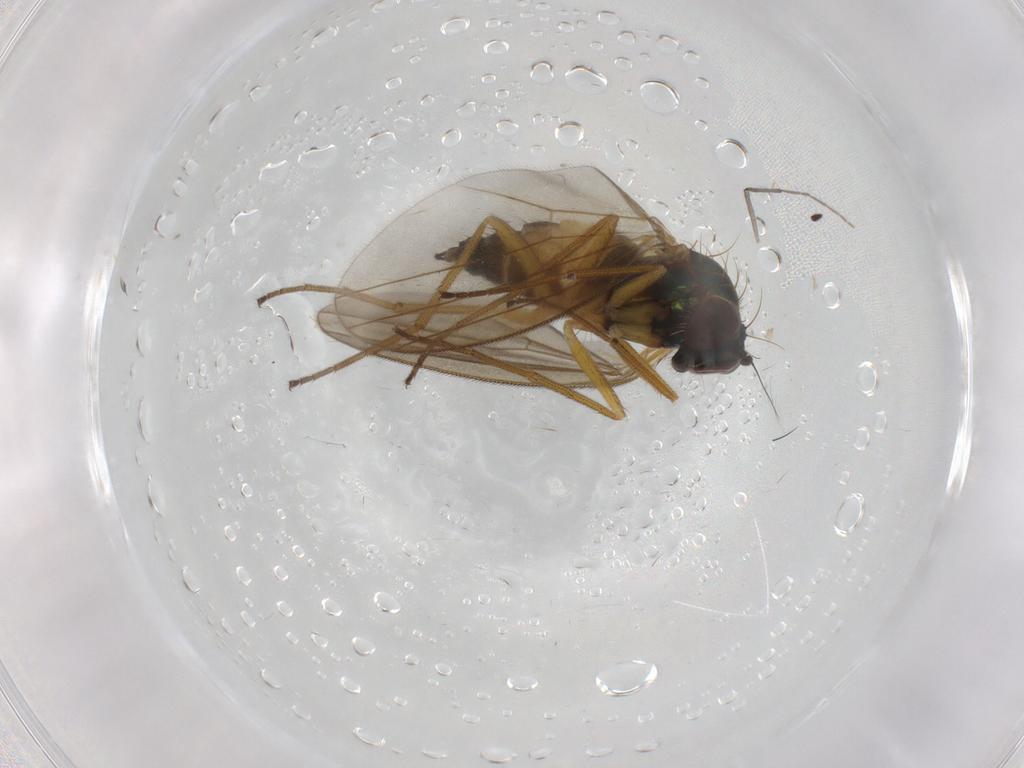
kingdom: Animalia
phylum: Arthropoda
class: Insecta
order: Diptera
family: Dolichopodidae
